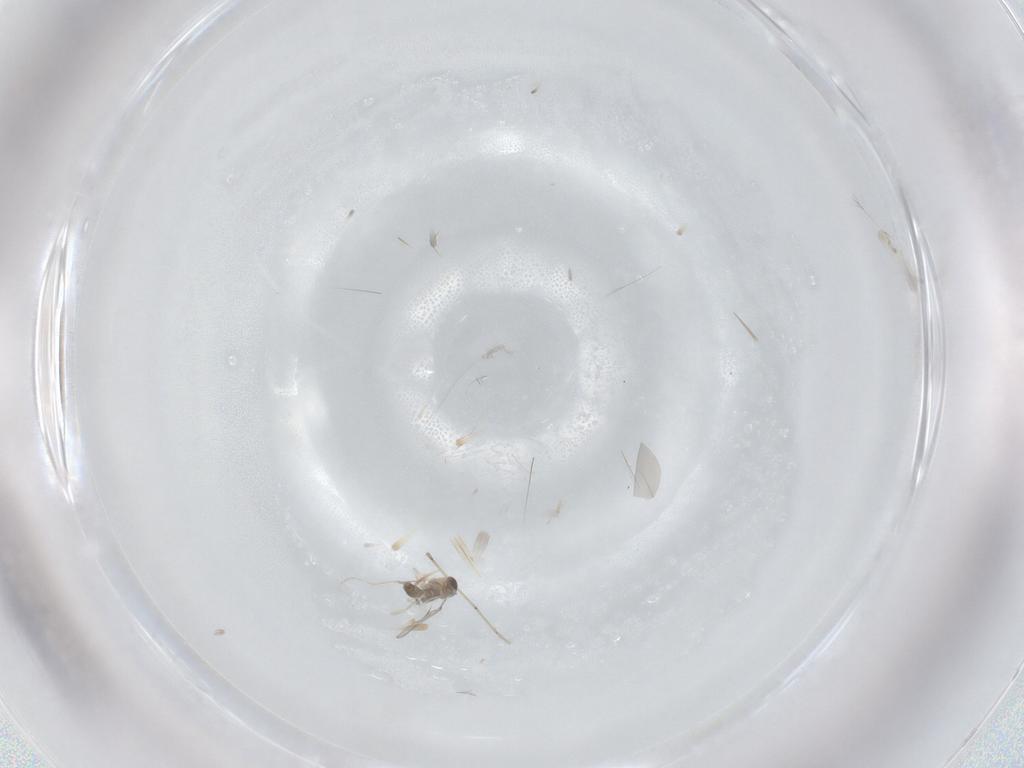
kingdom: Animalia
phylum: Arthropoda
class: Insecta
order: Diptera
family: Cecidomyiidae
